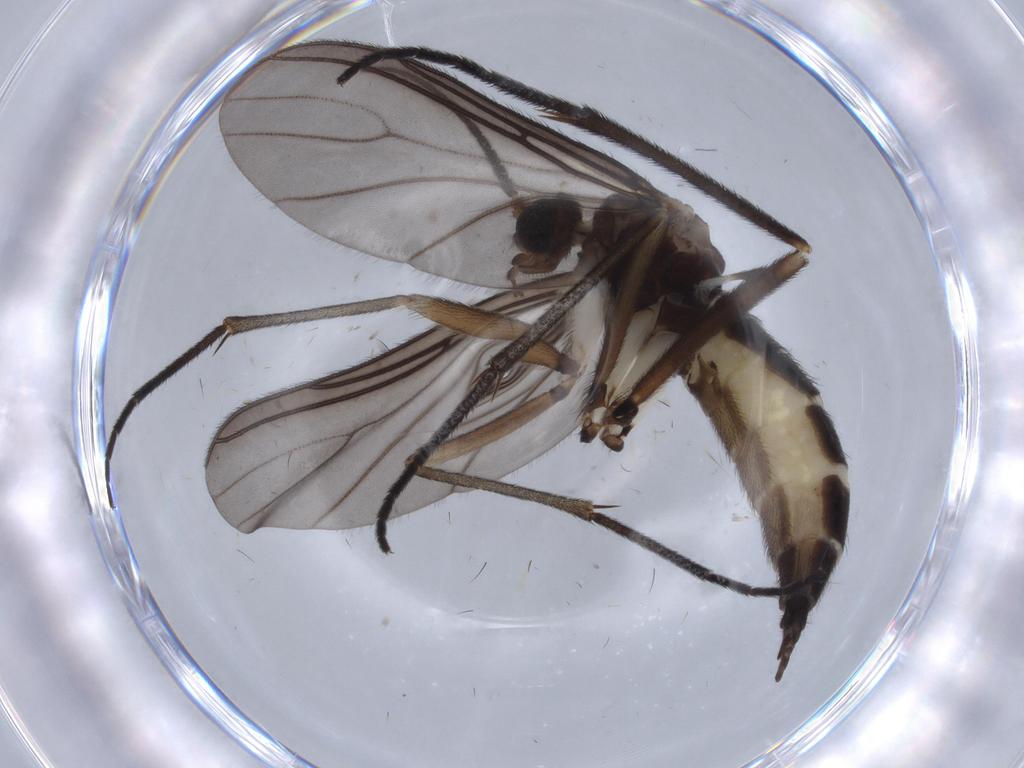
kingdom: Animalia
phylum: Arthropoda
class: Insecta
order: Diptera
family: Sciaridae
